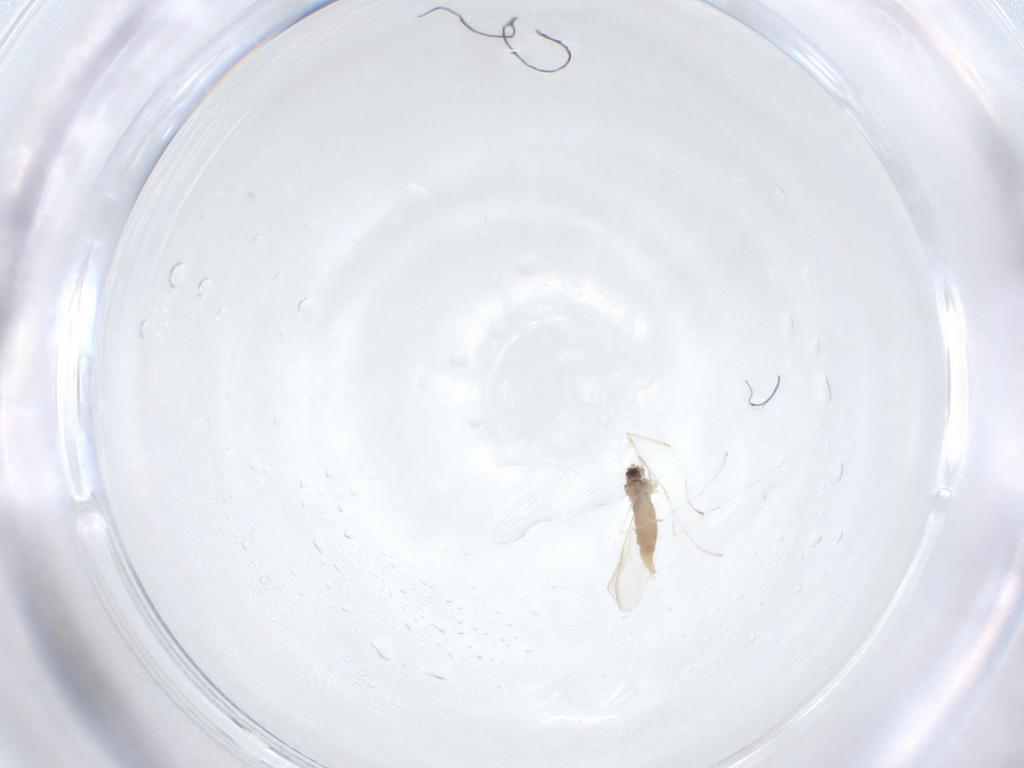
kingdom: Animalia
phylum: Arthropoda
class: Insecta
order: Diptera
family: Cecidomyiidae
